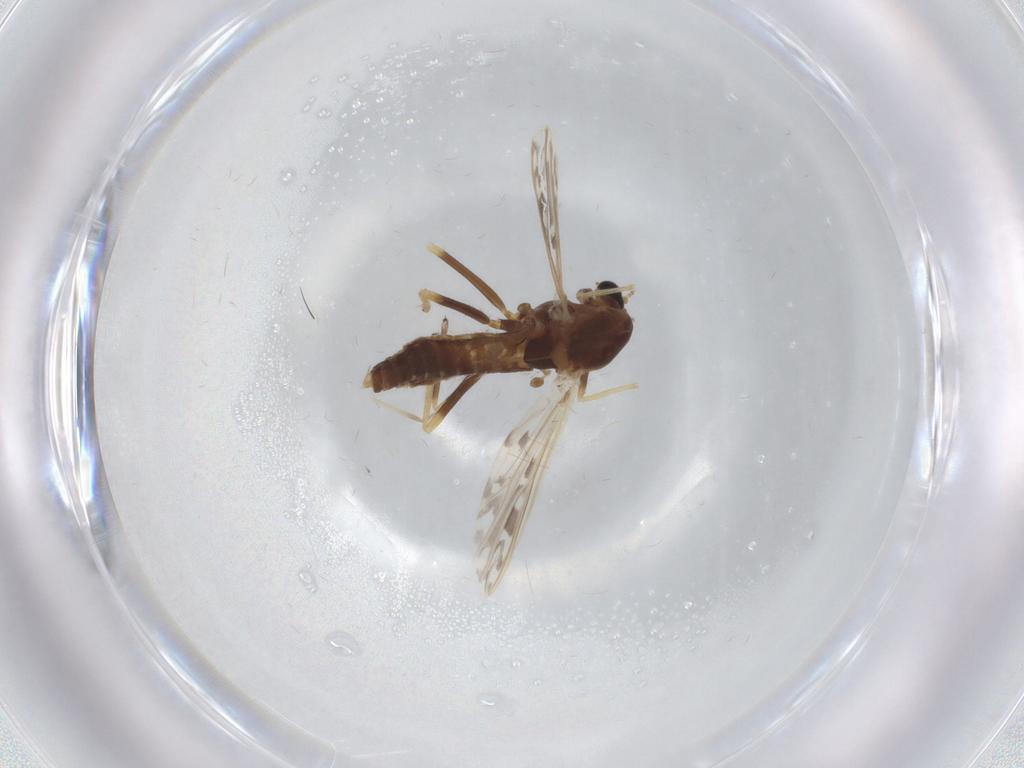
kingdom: Animalia
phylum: Arthropoda
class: Insecta
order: Diptera
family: Chironomidae
